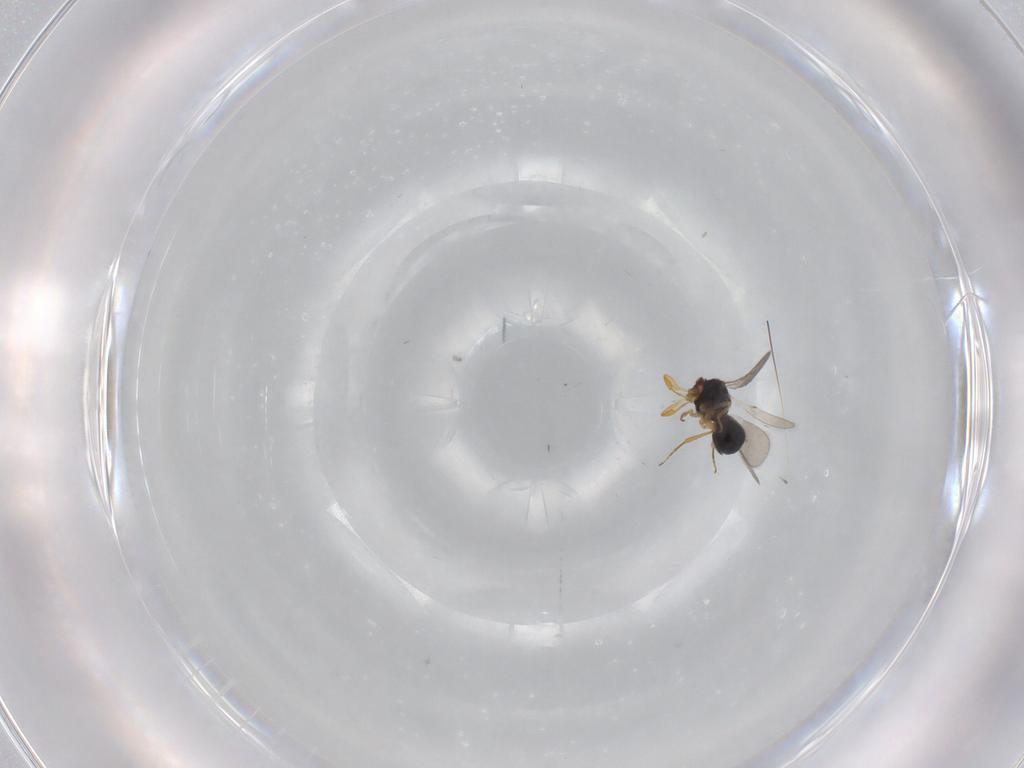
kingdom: Animalia
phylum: Arthropoda
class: Insecta
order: Hymenoptera
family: Scelionidae
